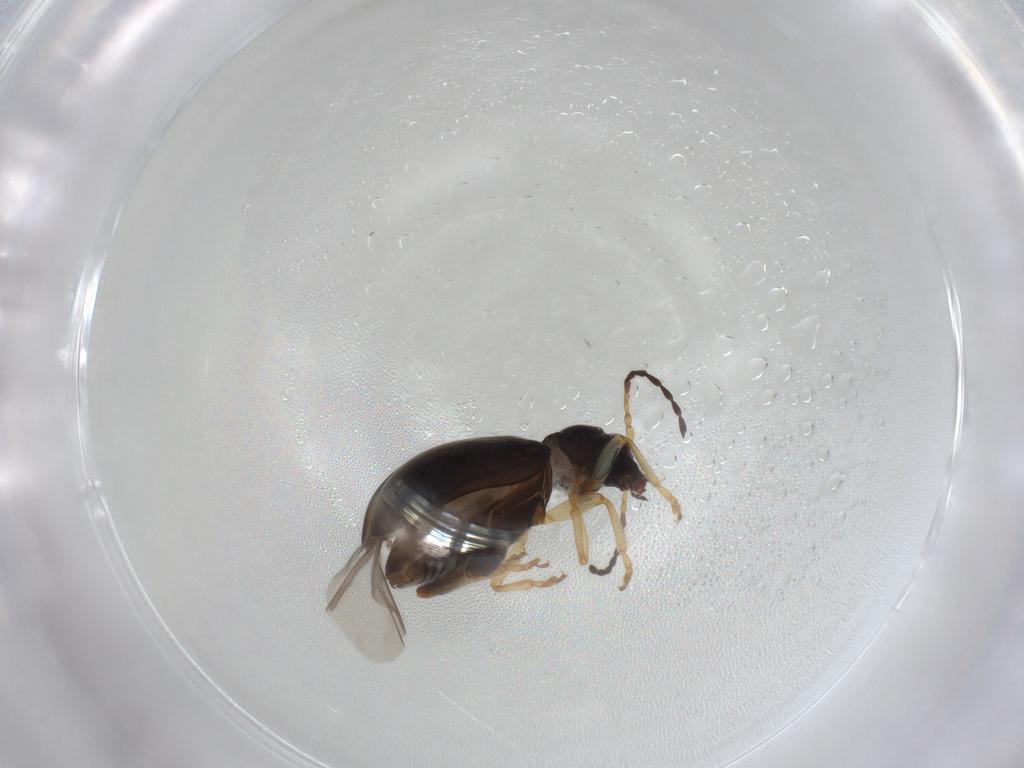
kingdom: Animalia
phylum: Arthropoda
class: Insecta
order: Coleoptera
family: Chrysomelidae
